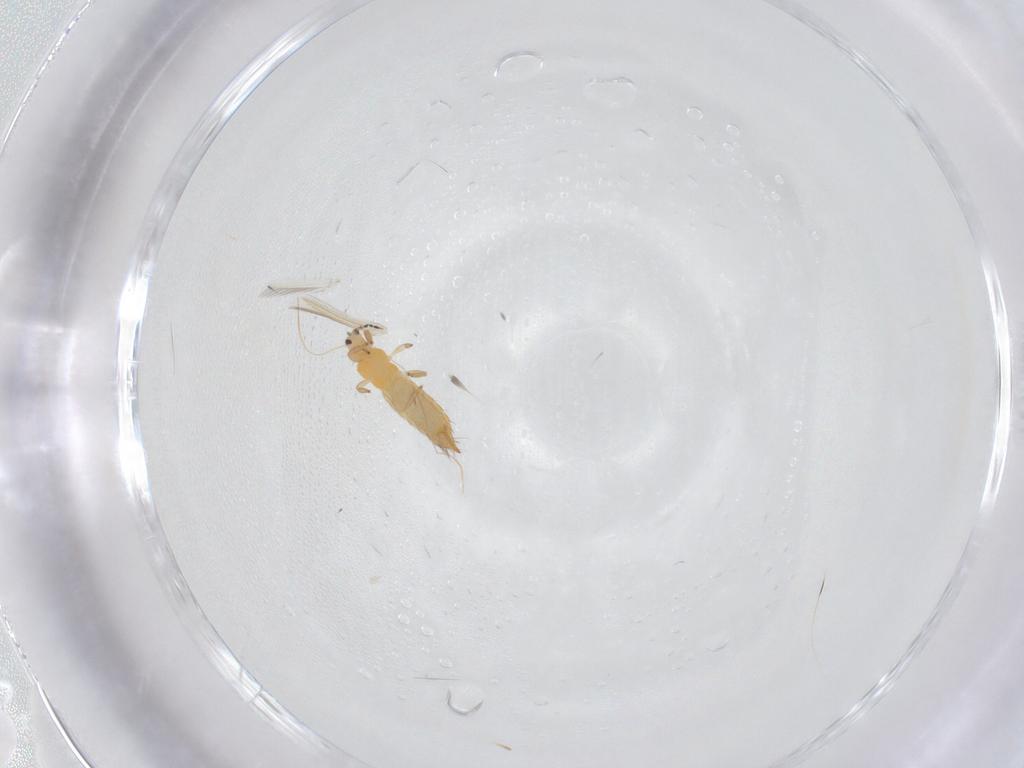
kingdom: Animalia
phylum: Arthropoda
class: Insecta
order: Thysanoptera
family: Thripidae
